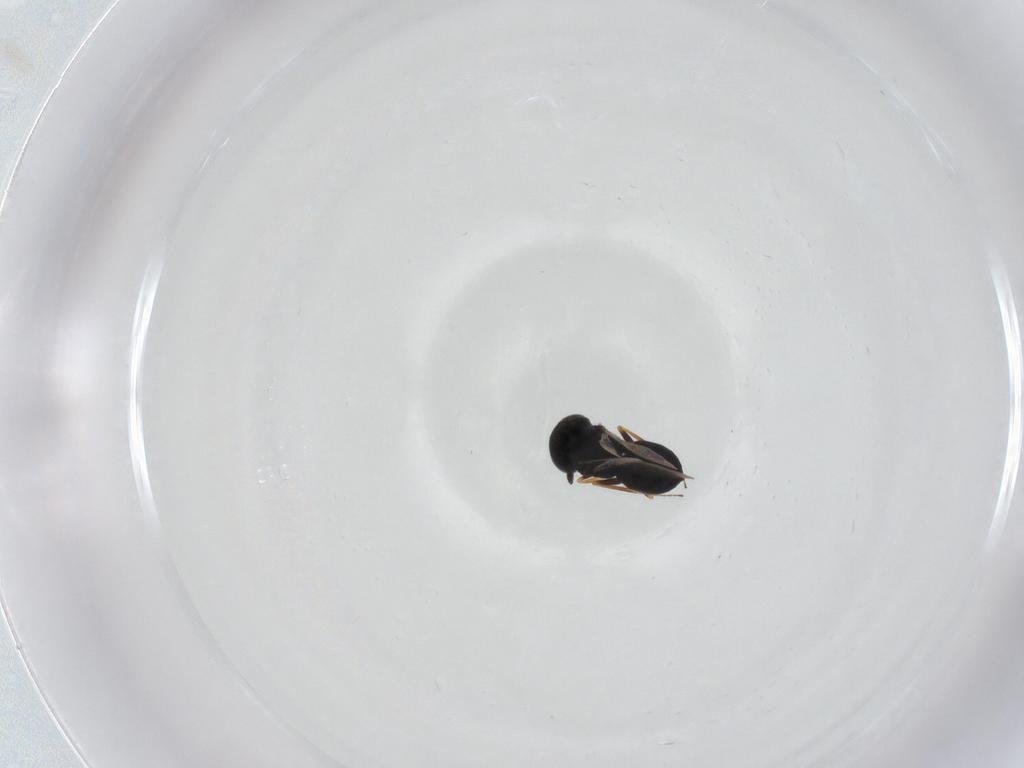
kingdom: Animalia
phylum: Arthropoda
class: Insecta
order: Hymenoptera
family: Scelionidae
